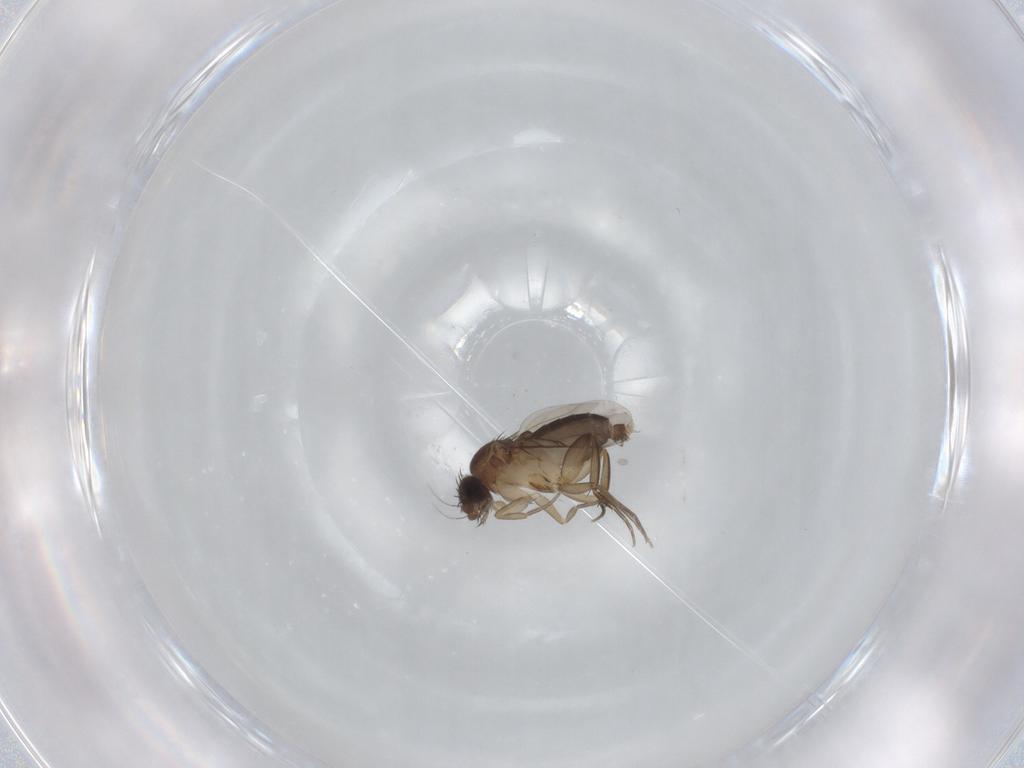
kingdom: Animalia
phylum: Arthropoda
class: Insecta
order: Diptera
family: Phoridae
